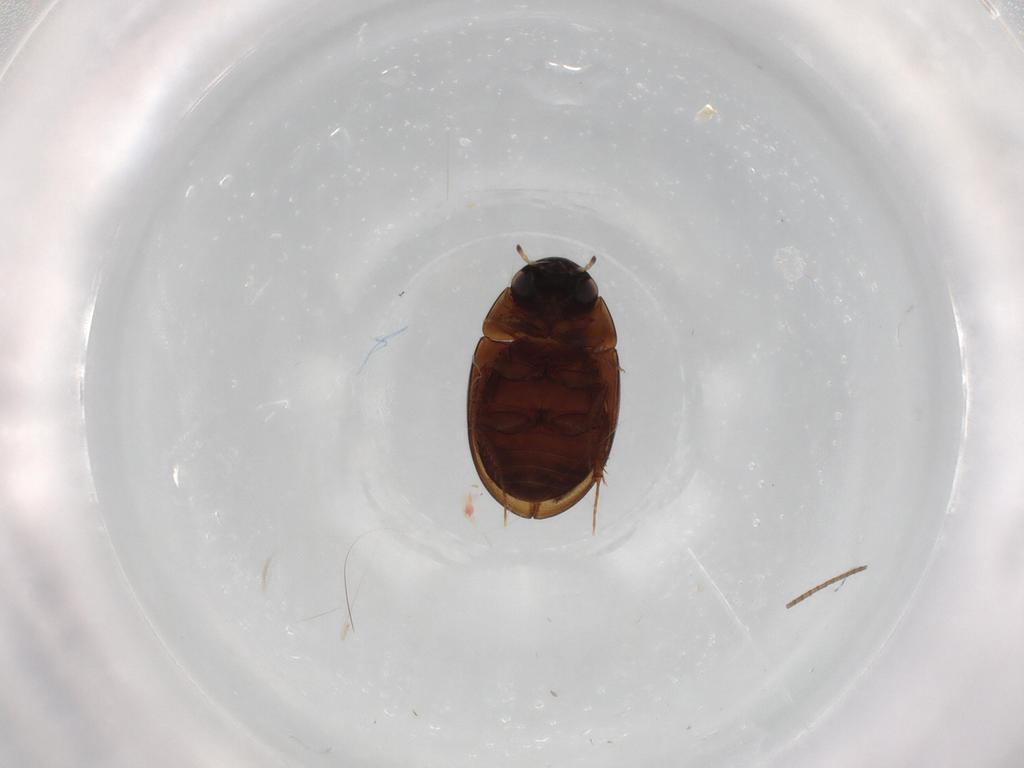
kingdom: Animalia
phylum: Arthropoda
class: Insecta
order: Coleoptera
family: Hydrophilidae
